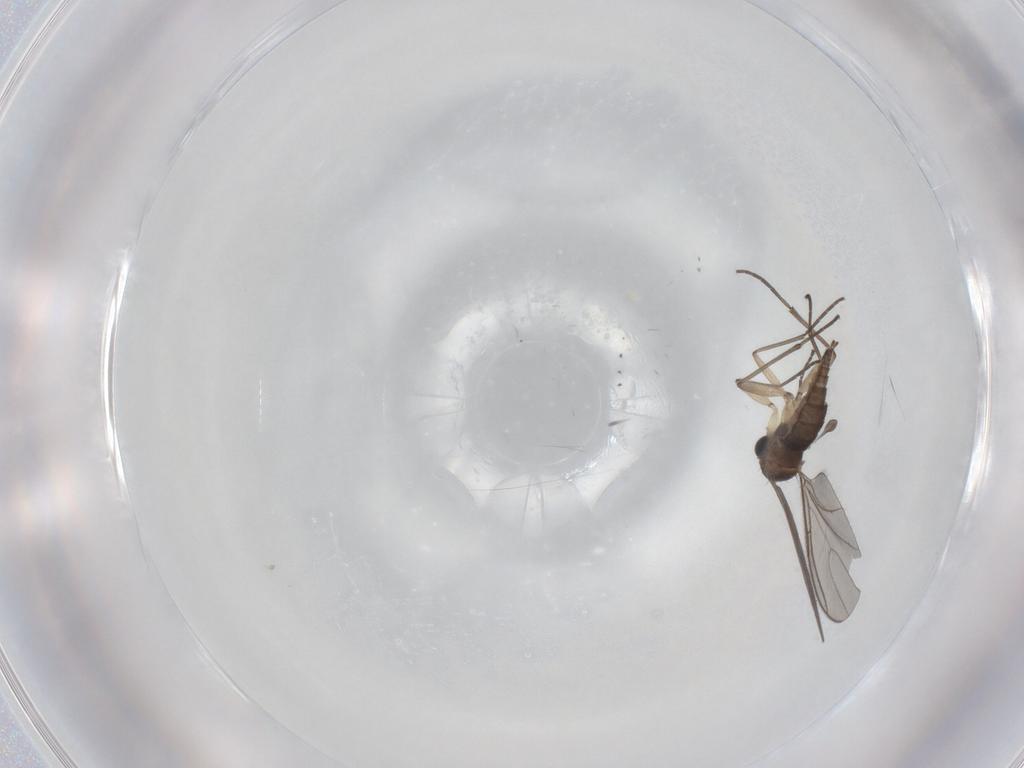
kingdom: Animalia
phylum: Arthropoda
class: Insecta
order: Diptera
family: Sciaridae
